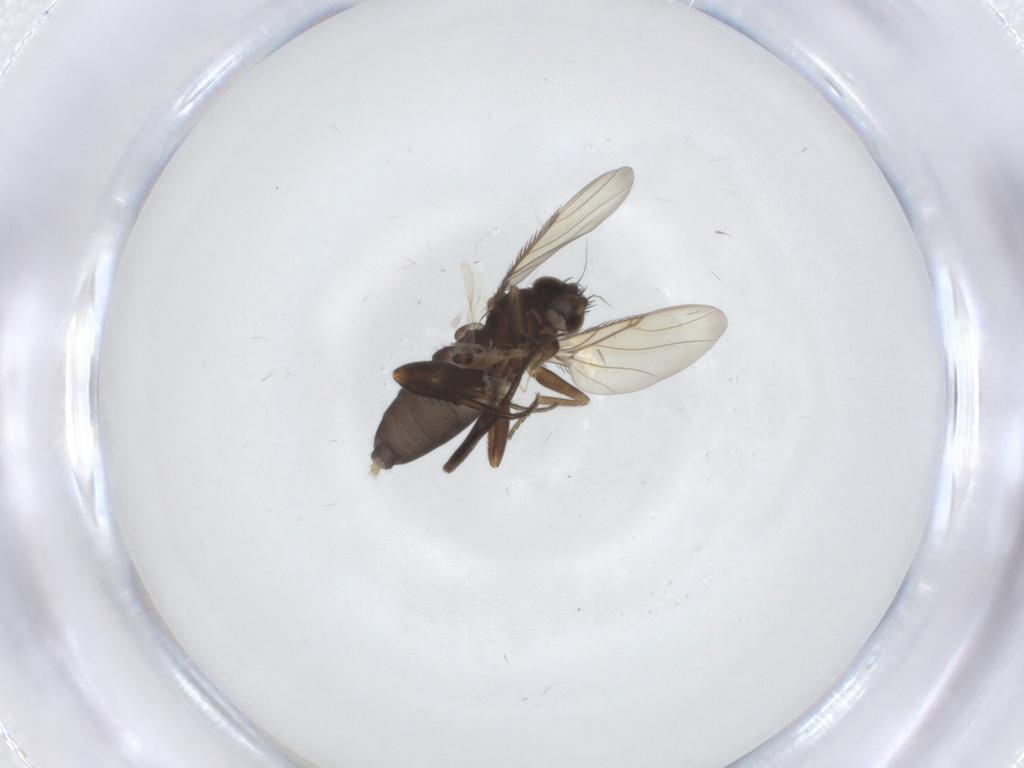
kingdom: Animalia
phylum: Arthropoda
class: Insecta
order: Diptera
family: Phoridae
